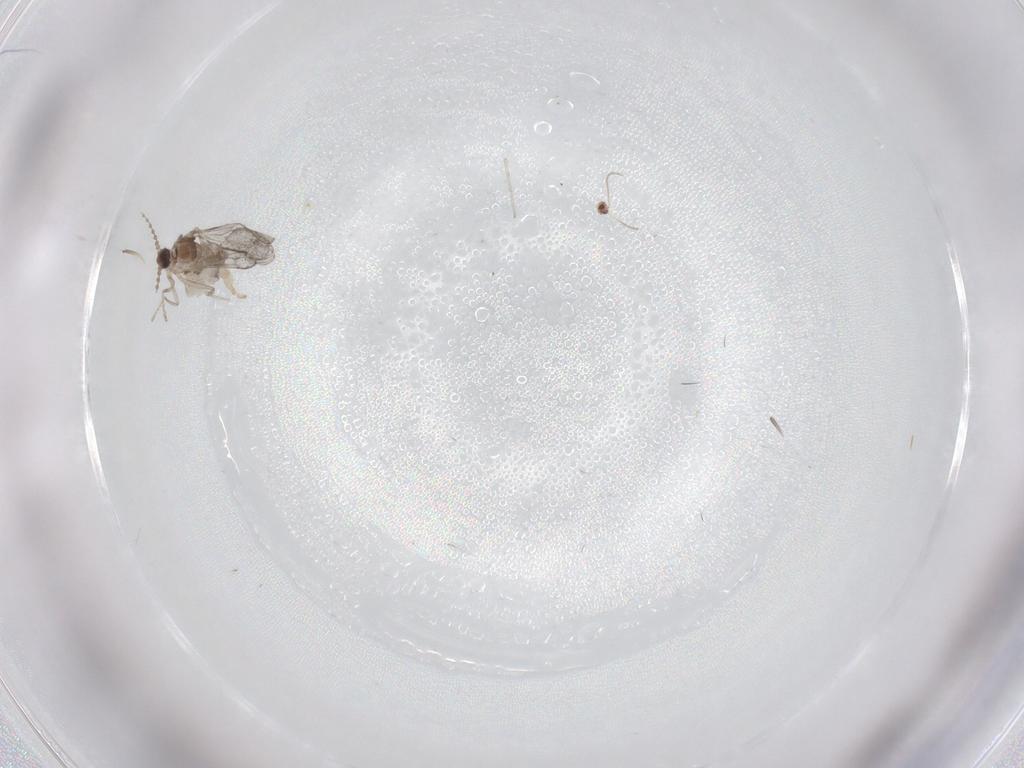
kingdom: Animalia
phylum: Arthropoda
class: Insecta
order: Diptera
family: Cecidomyiidae
